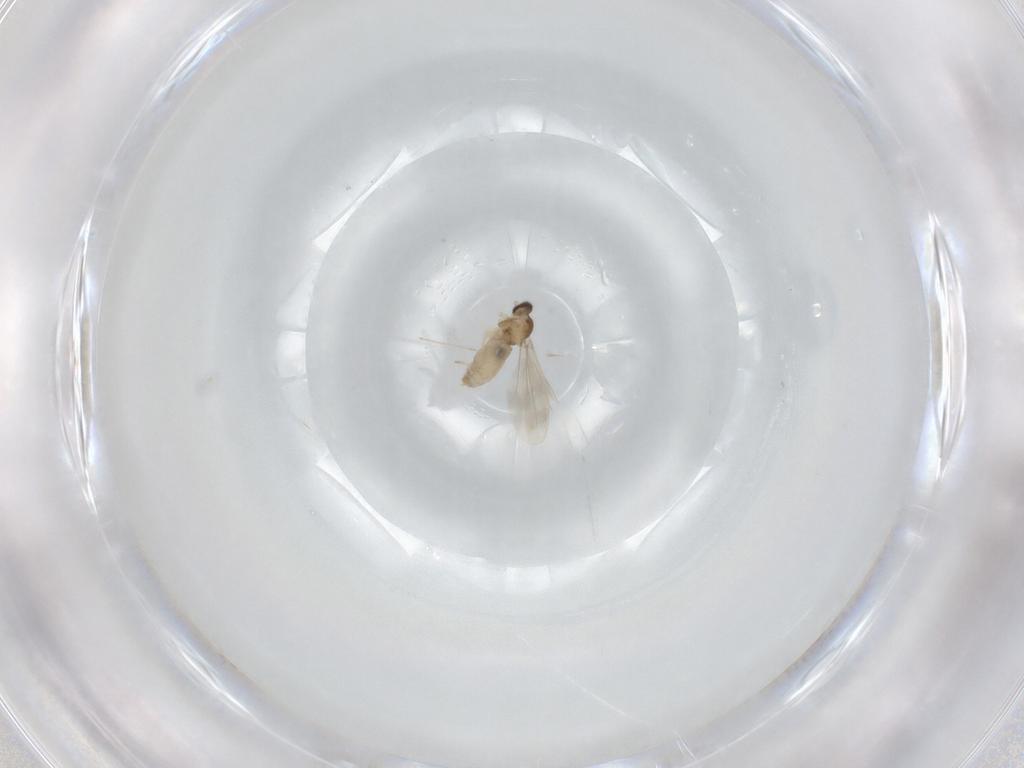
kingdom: Animalia
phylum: Arthropoda
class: Insecta
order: Diptera
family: Cecidomyiidae
